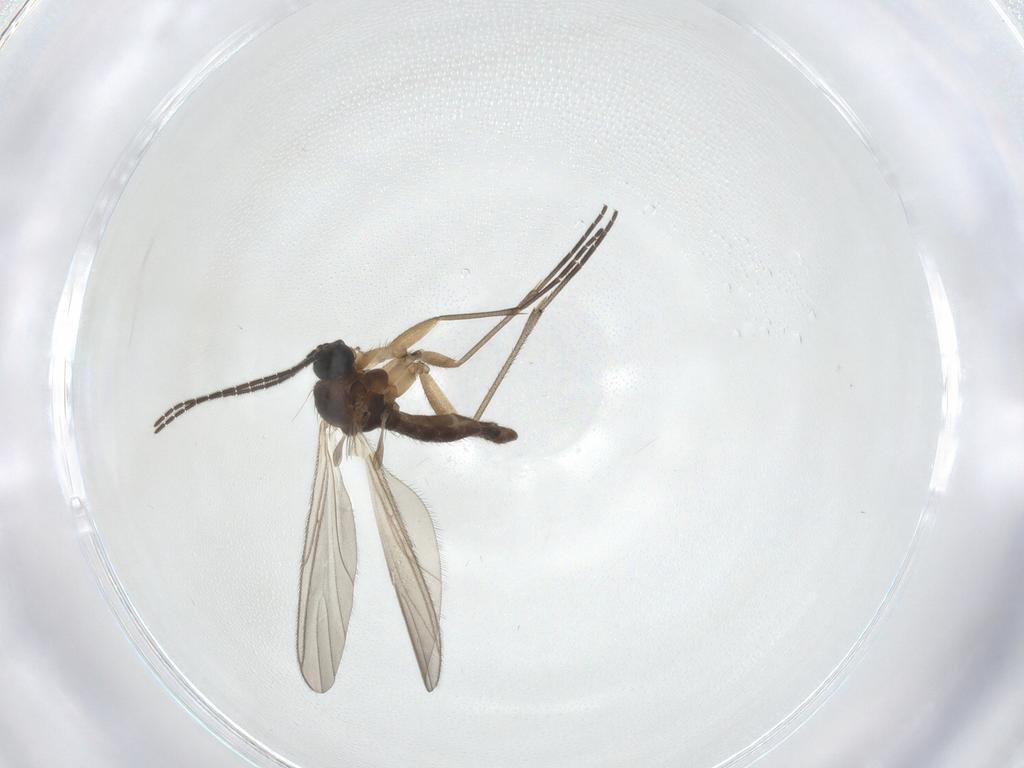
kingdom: Animalia
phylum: Arthropoda
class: Insecta
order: Diptera
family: Sciaridae
